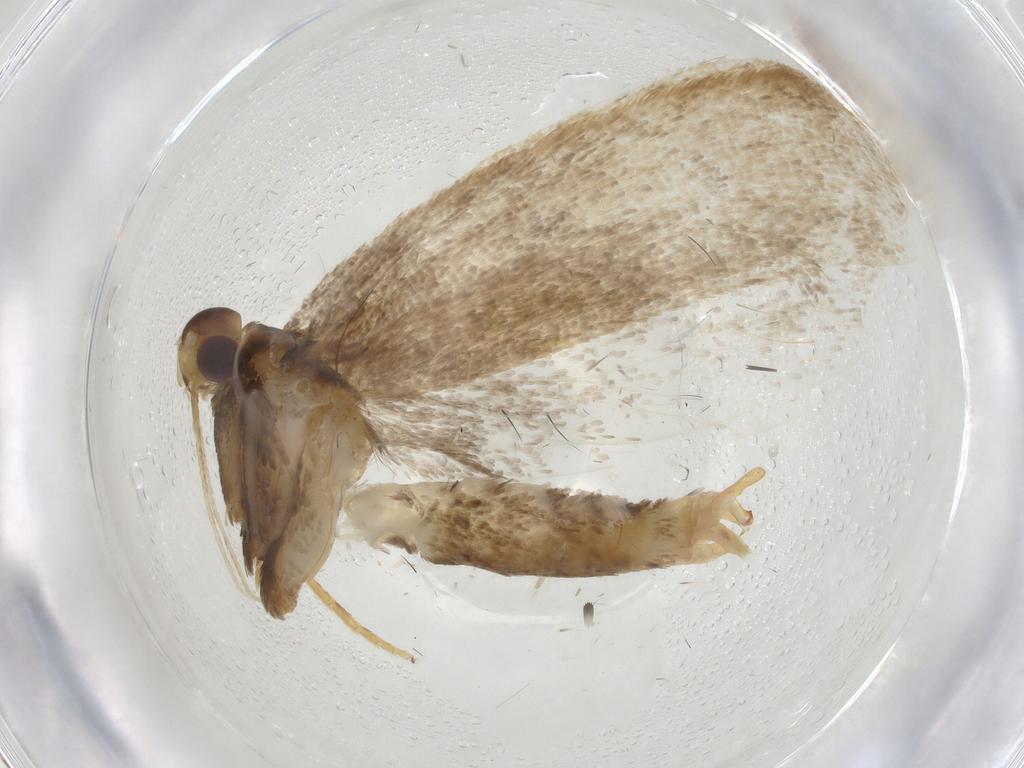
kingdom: Animalia
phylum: Arthropoda
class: Insecta
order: Lepidoptera
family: Lecithoceridae
